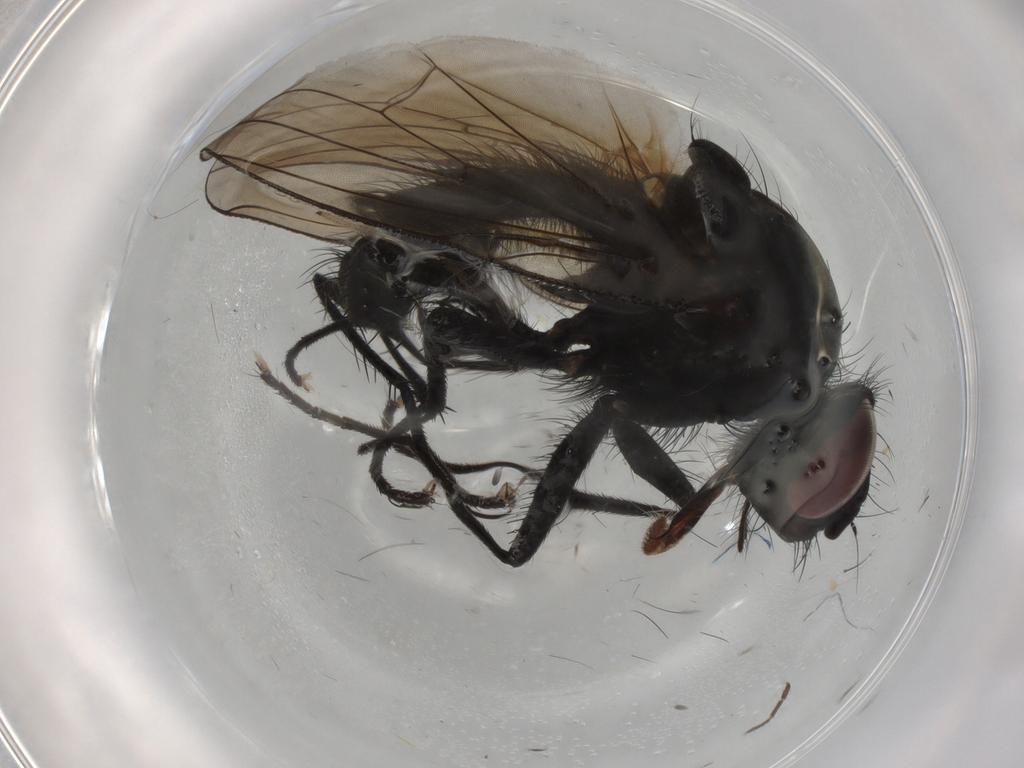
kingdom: Animalia
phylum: Arthropoda
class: Insecta
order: Diptera
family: Anthomyiidae
